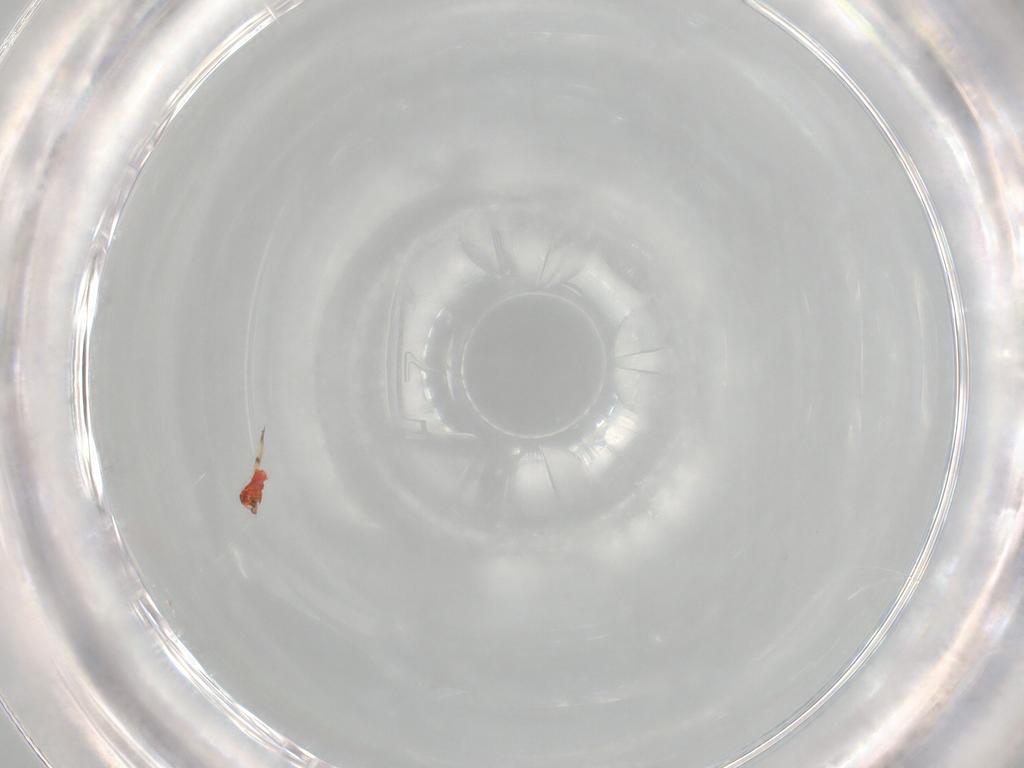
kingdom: Animalia
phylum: Arthropoda
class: Insecta
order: Hymenoptera
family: Trichogrammatidae
